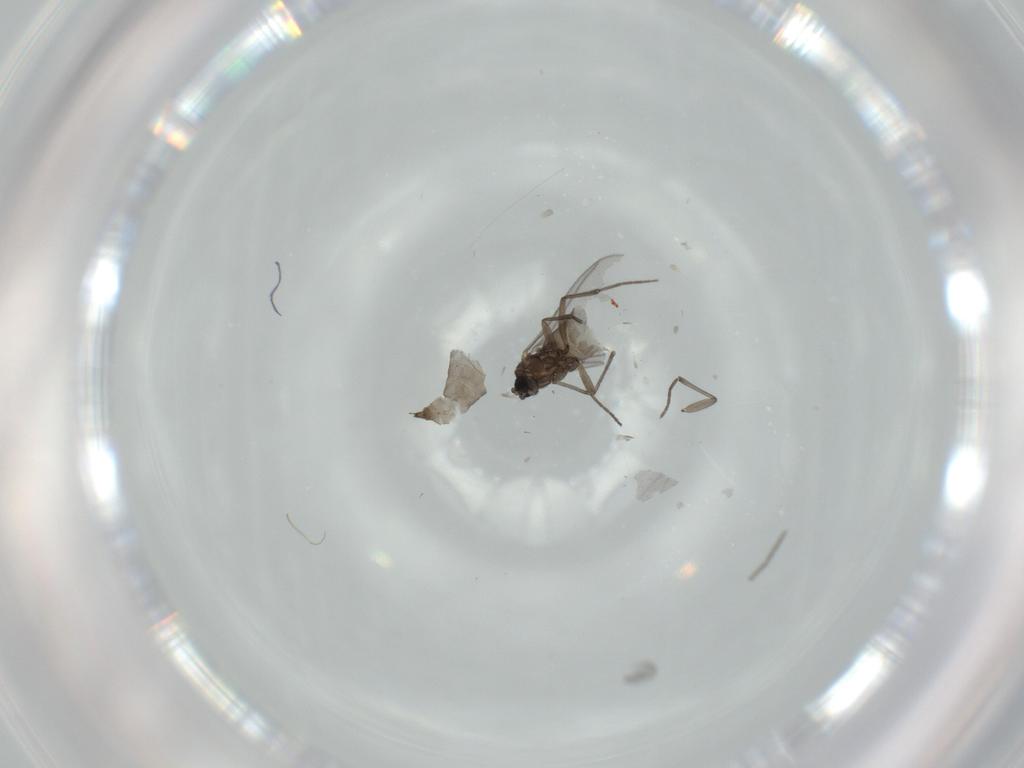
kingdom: Animalia
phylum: Arthropoda
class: Insecta
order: Diptera
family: Sciaridae
